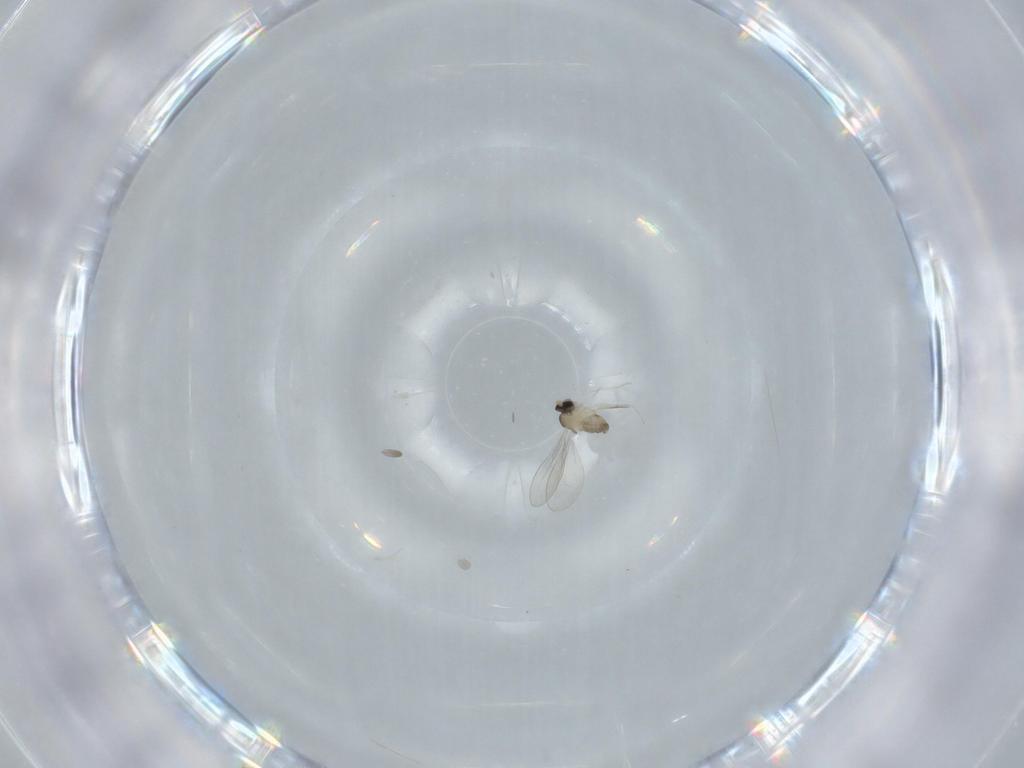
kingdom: Animalia
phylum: Arthropoda
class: Insecta
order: Diptera
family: Cecidomyiidae
